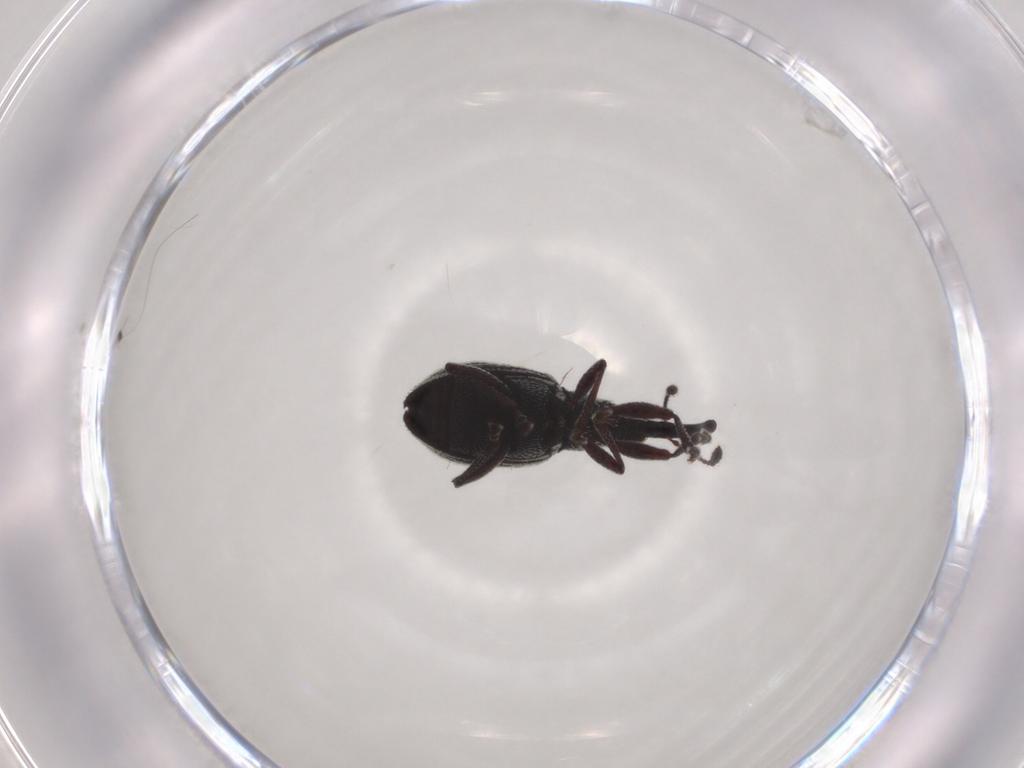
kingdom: Animalia
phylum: Arthropoda
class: Insecta
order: Coleoptera
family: Brentidae
